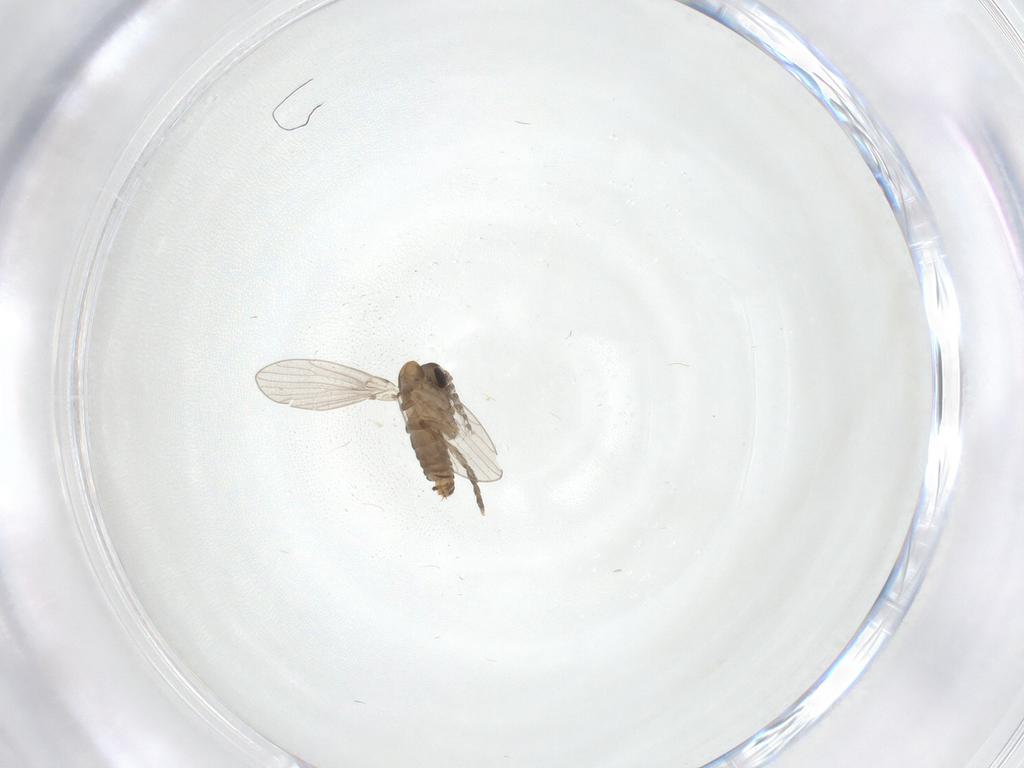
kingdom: Animalia
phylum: Arthropoda
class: Insecta
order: Diptera
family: Psychodidae
